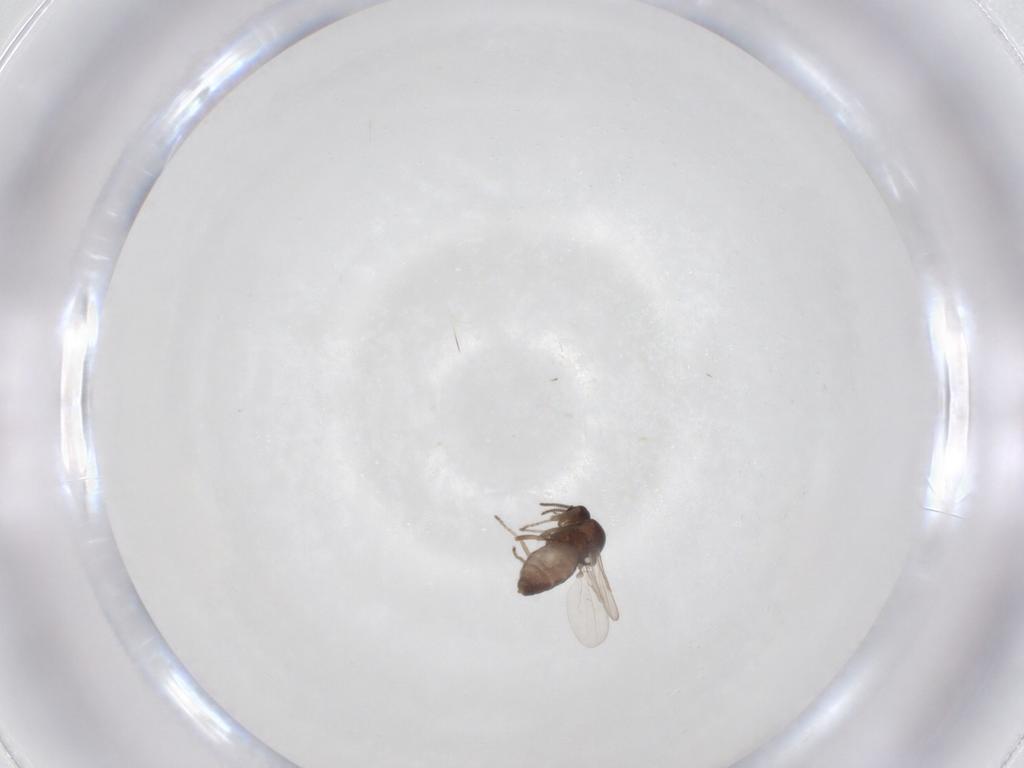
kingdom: Animalia
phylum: Arthropoda
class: Insecta
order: Diptera
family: Ceratopogonidae
